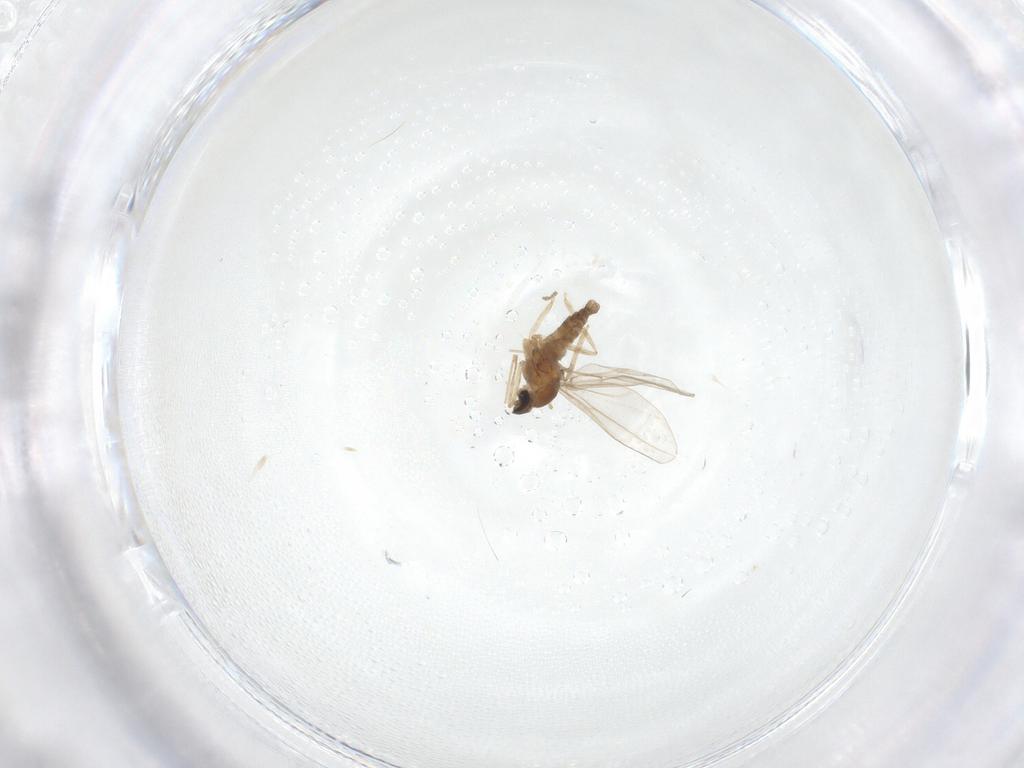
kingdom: Animalia
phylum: Arthropoda
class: Insecta
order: Diptera
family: Cecidomyiidae
